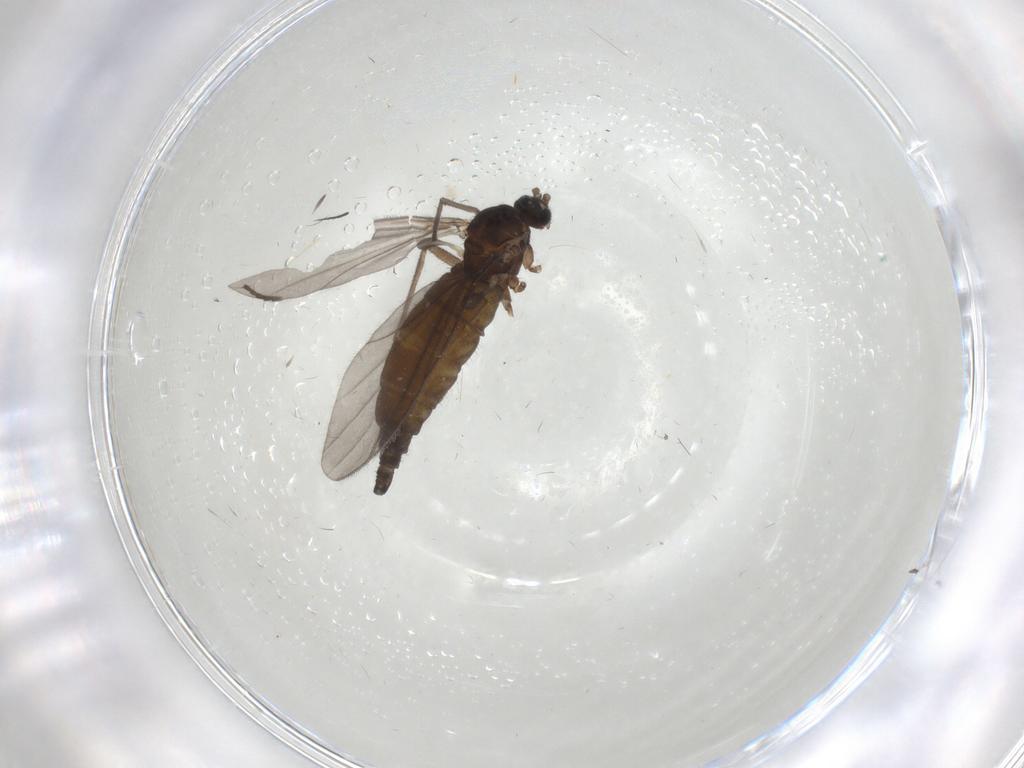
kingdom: Animalia
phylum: Arthropoda
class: Insecta
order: Diptera
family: Sciaridae
